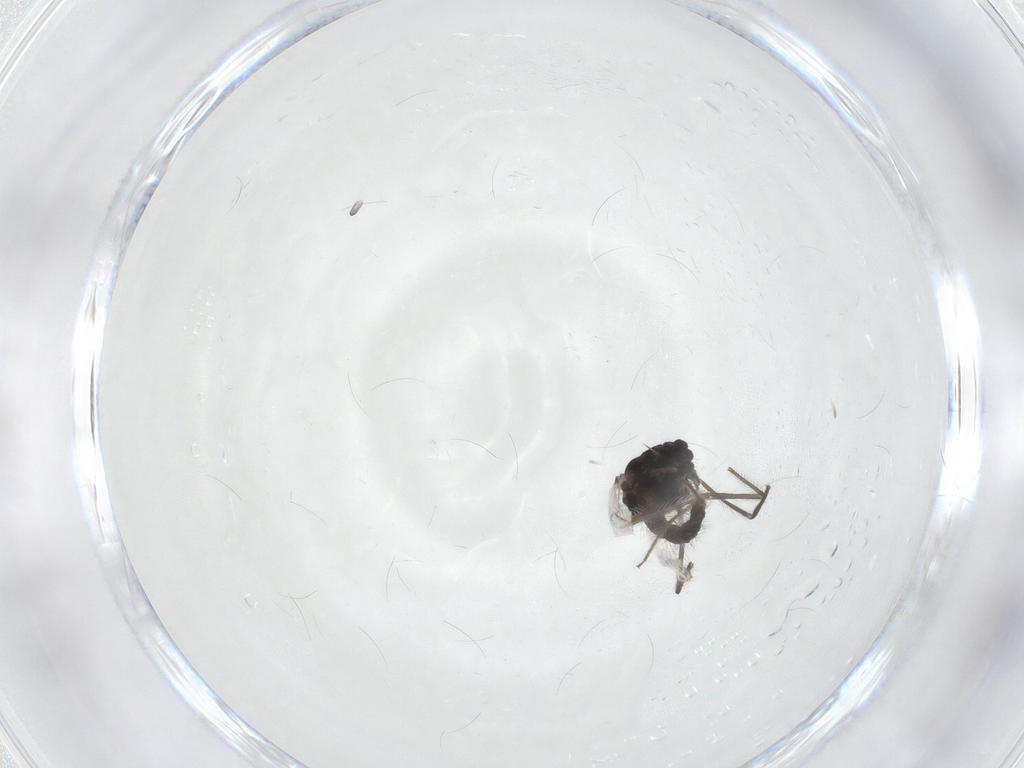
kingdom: Animalia
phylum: Arthropoda
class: Insecta
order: Diptera
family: Chironomidae
